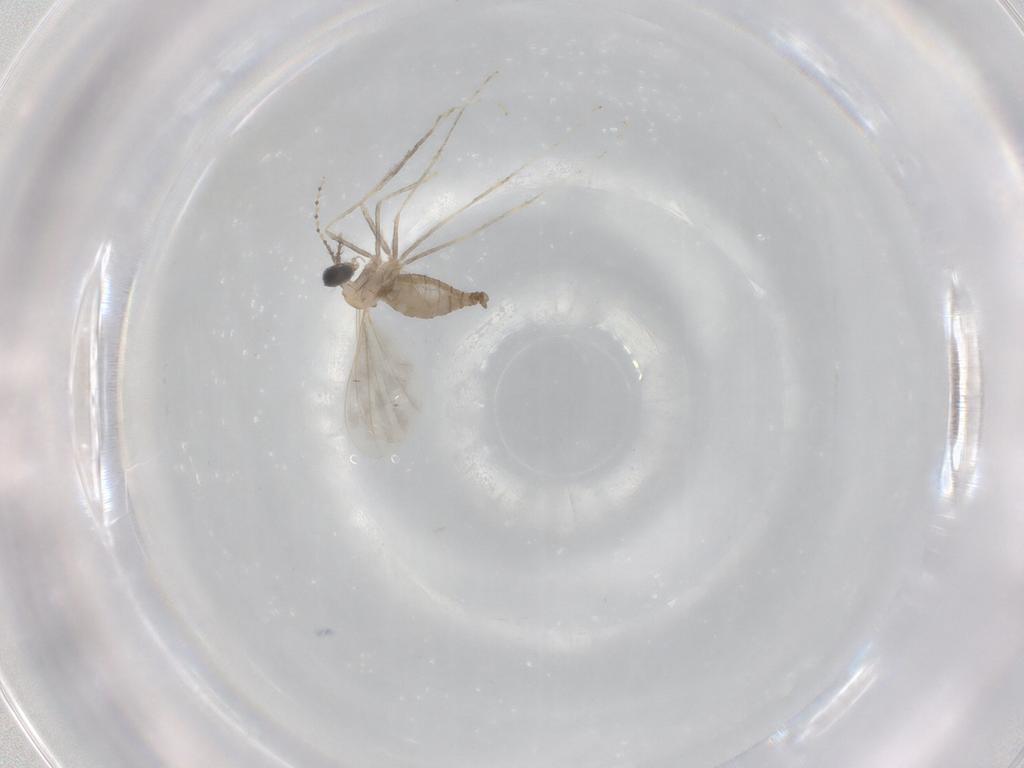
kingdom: Animalia
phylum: Arthropoda
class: Insecta
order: Diptera
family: Cecidomyiidae
